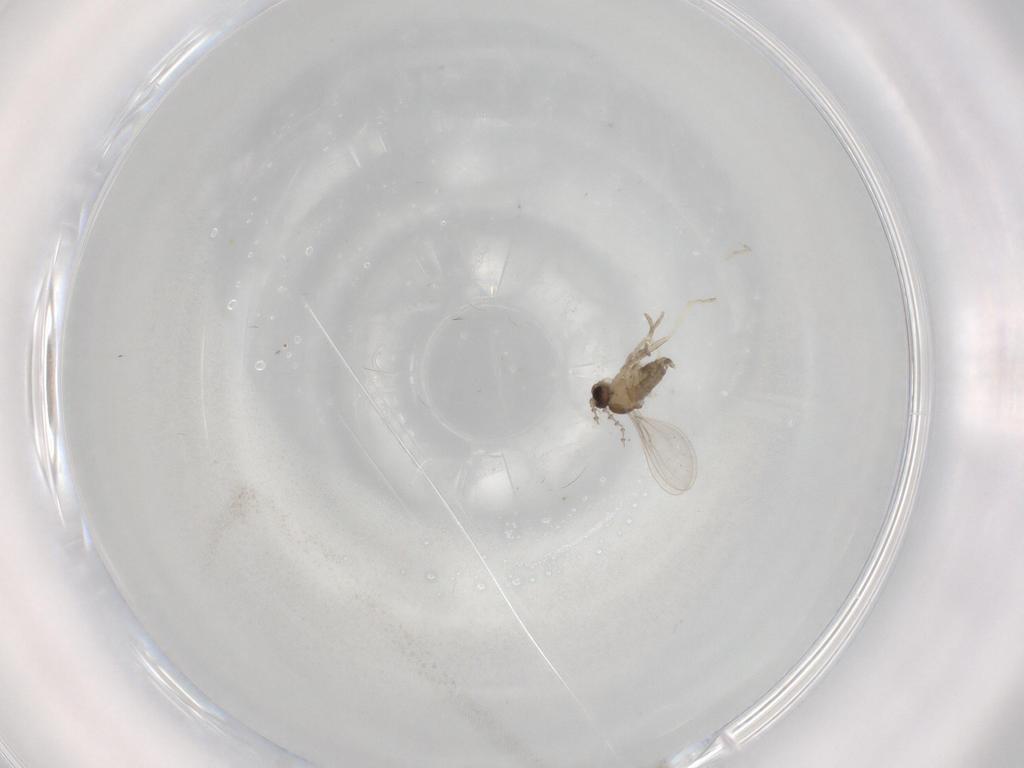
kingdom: Animalia
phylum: Arthropoda
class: Insecta
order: Diptera
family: Cecidomyiidae
